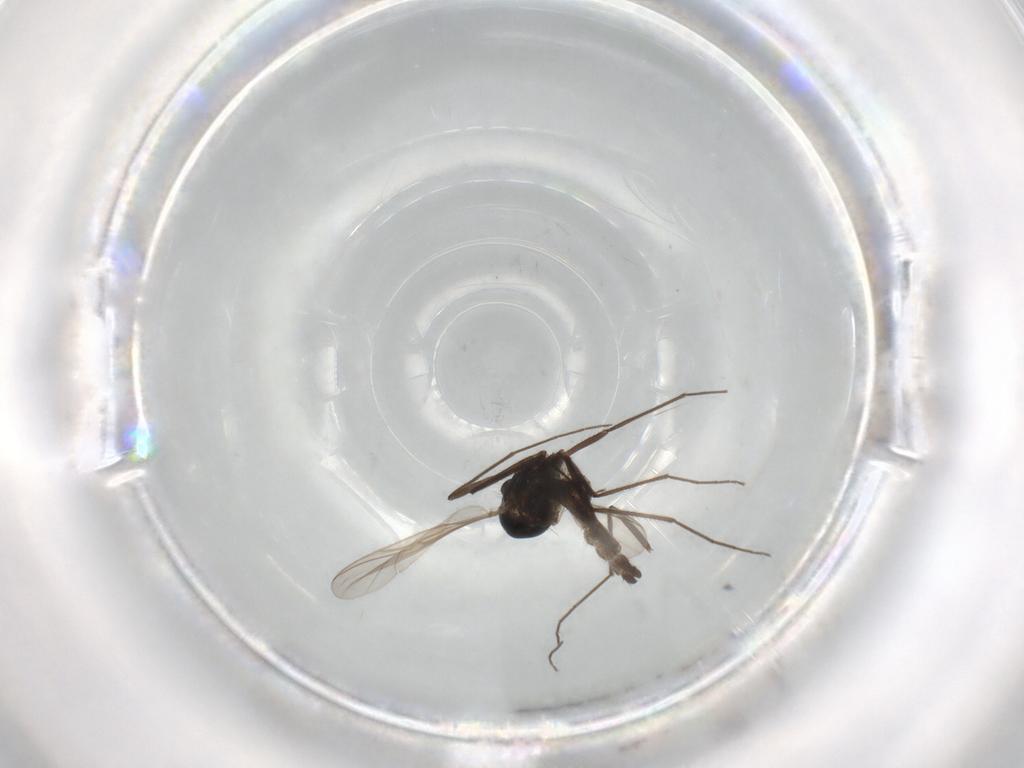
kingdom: Animalia
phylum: Arthropoda
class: Insecta
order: Diptera
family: Chironomidae
